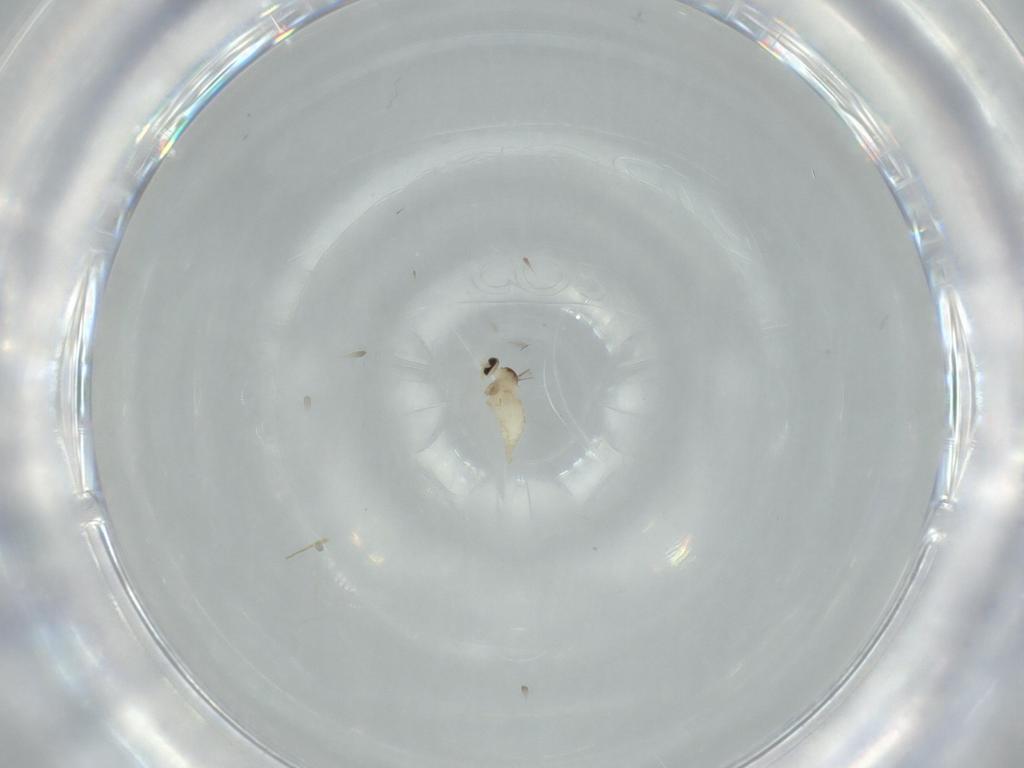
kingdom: Animalia
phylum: Arthropoda
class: Insecta
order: Diptera
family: Cecidomyiidae
